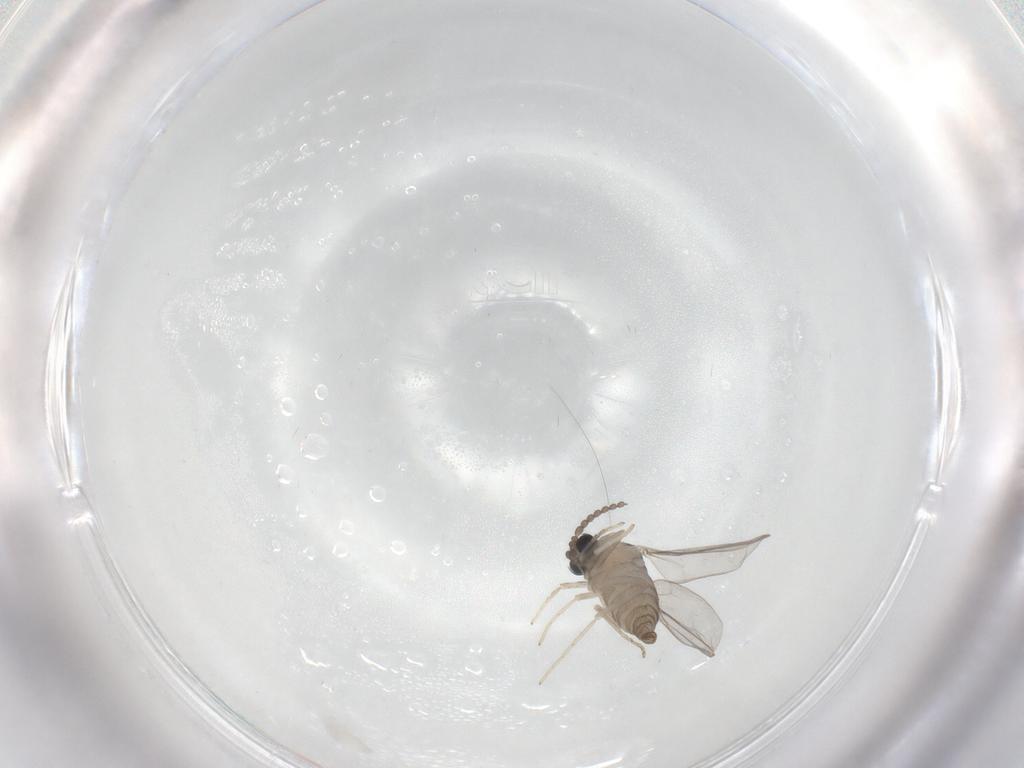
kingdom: Animalia
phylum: Arthropoda
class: Insecta
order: Diptera
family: Sciaridae
